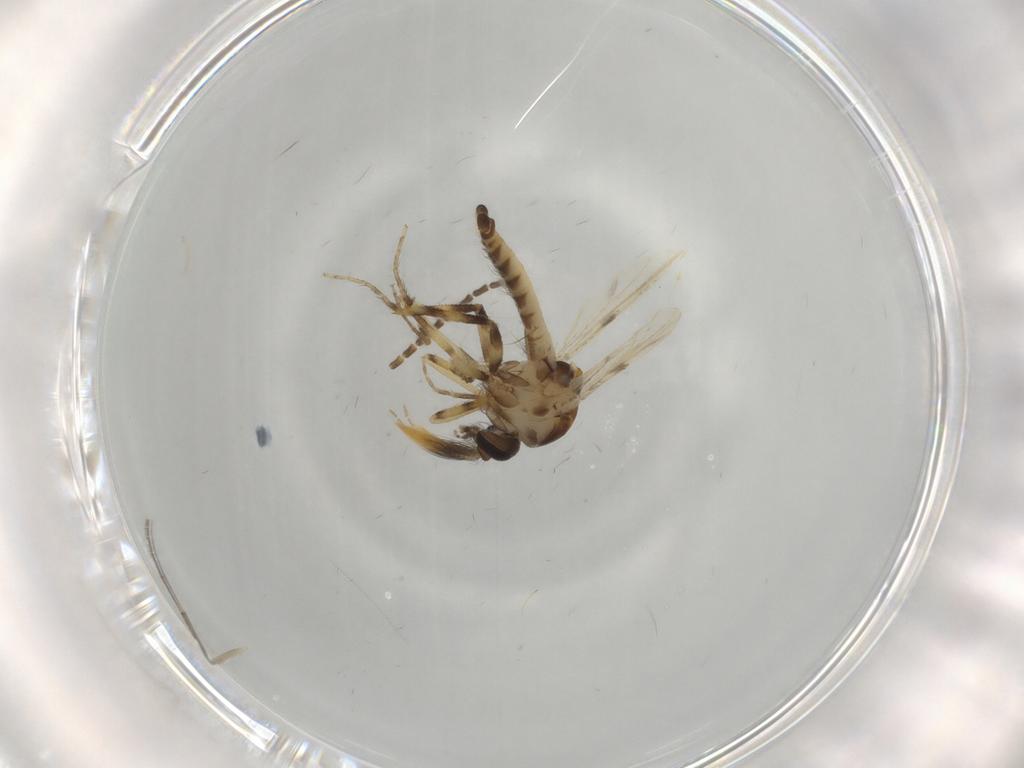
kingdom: Animalia
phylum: Arthropoda
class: Insecta
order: Diptera
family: Ceratopogonidae
